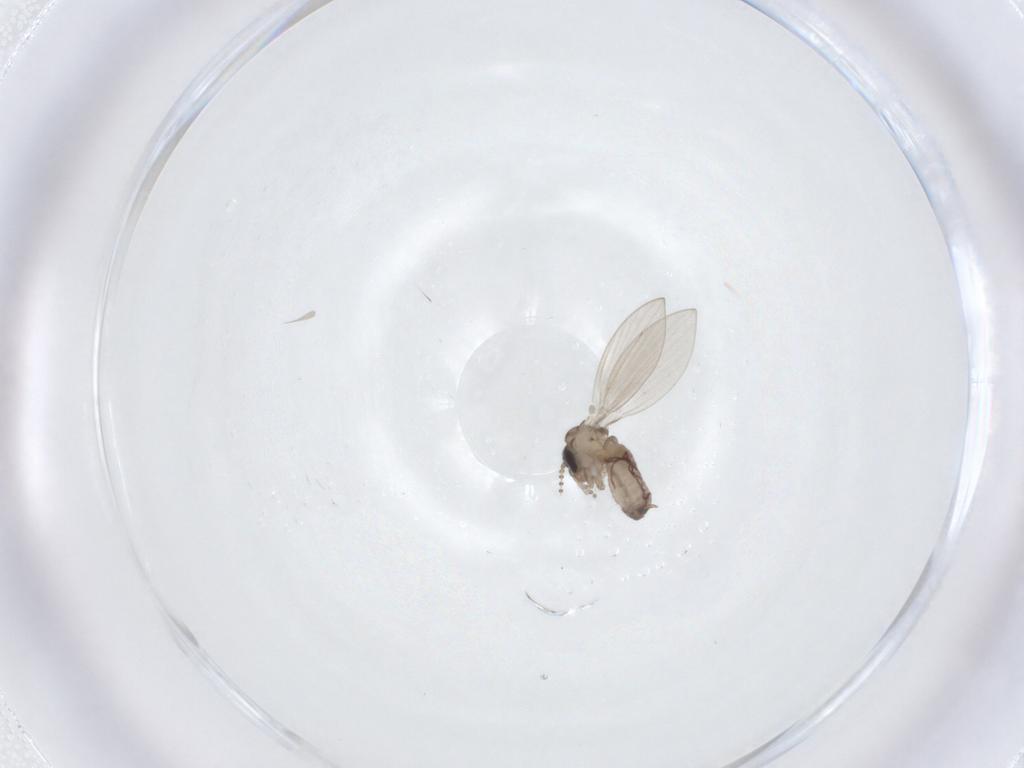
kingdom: Animalia
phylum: Arthropoda
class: Insecta
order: Diptera
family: Psychodidae
